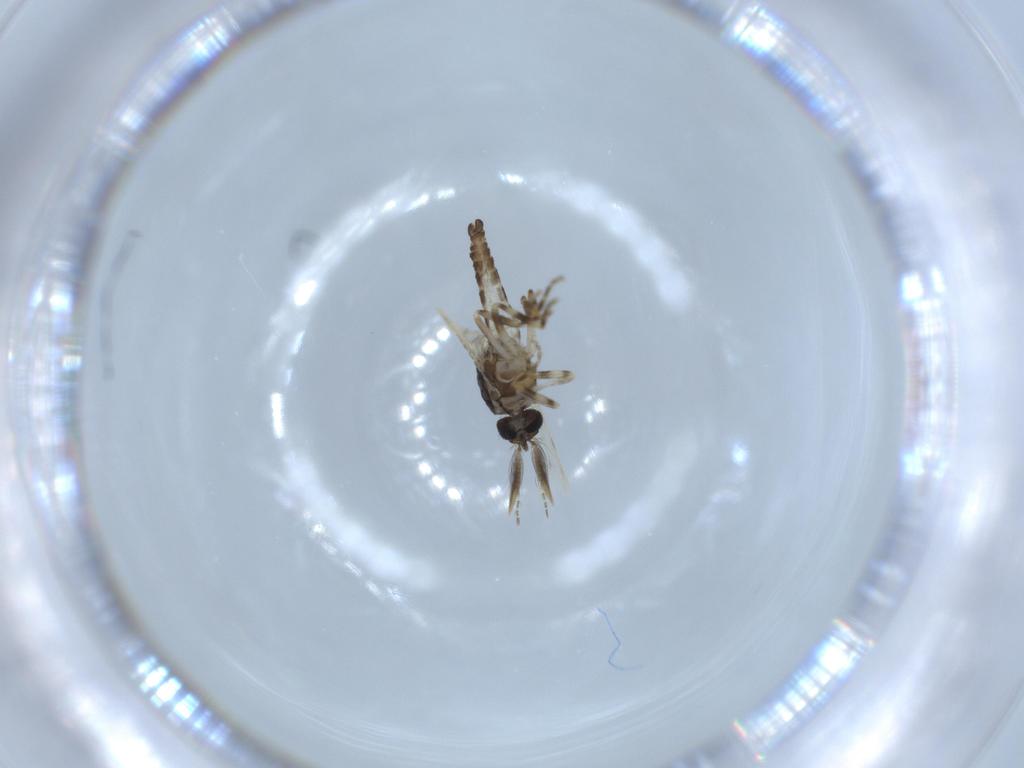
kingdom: Animalia
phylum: Arthropoda
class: Insecta
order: Diptera
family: Ceratopogonidae
